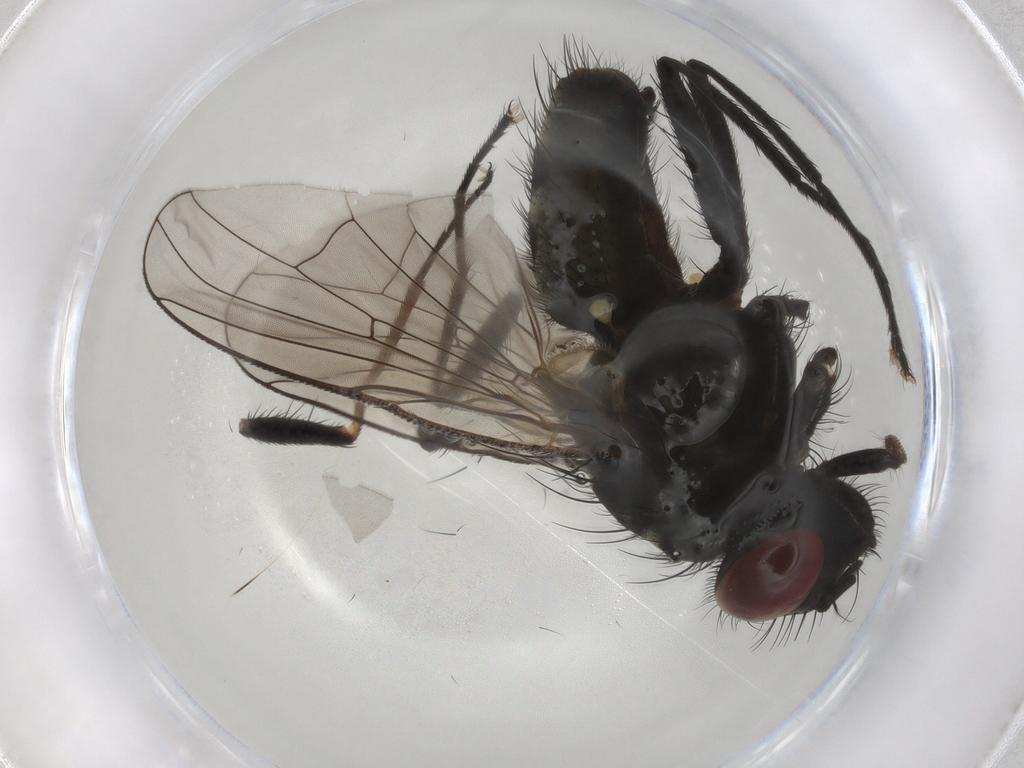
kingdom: Animalia
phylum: Arthropoda
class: Insecta
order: Diptera
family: Muscidae
